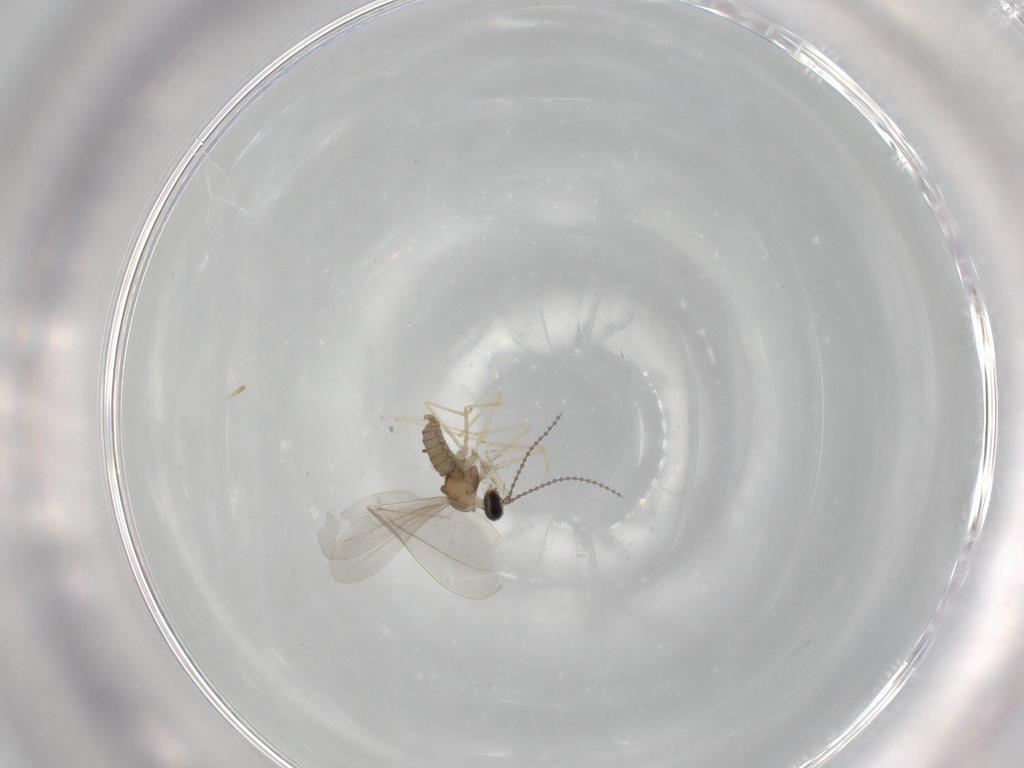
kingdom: Animalia
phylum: Arthropoda
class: Insecta
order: Diptera
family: Cecidomyiidae
